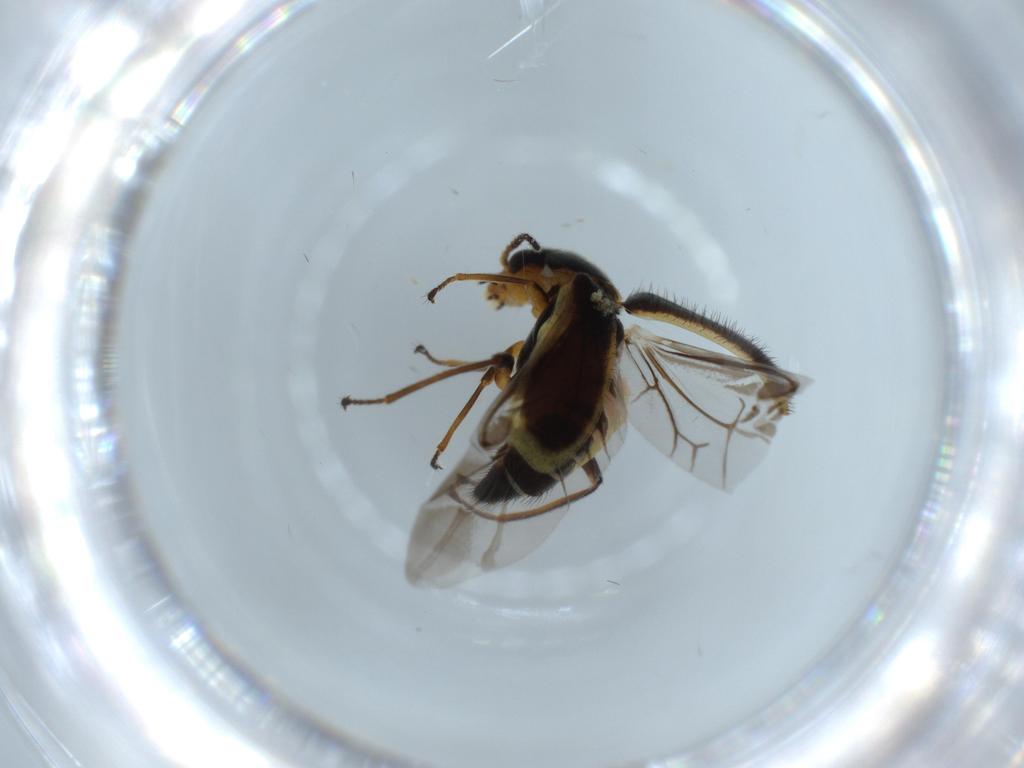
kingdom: Animalia
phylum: Arthropoda
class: Insecta
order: Coleoptera
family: Melyridae
